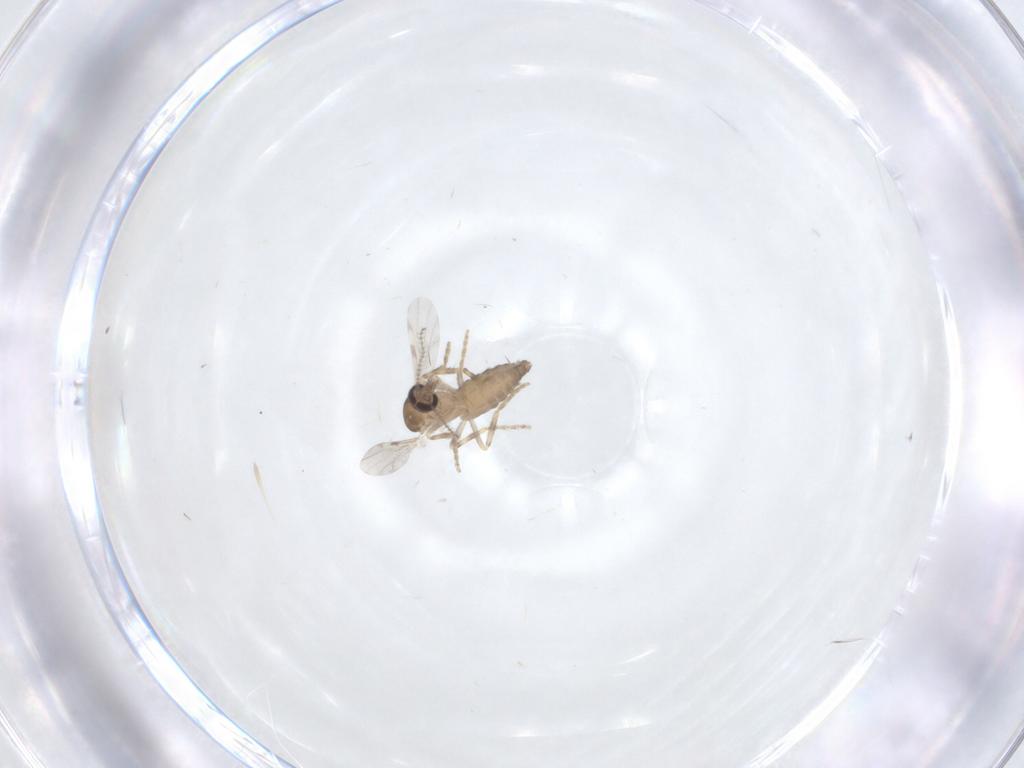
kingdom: Animalia
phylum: Arthropoda
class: Insecta
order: Diptera
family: Ceratopogonidae
